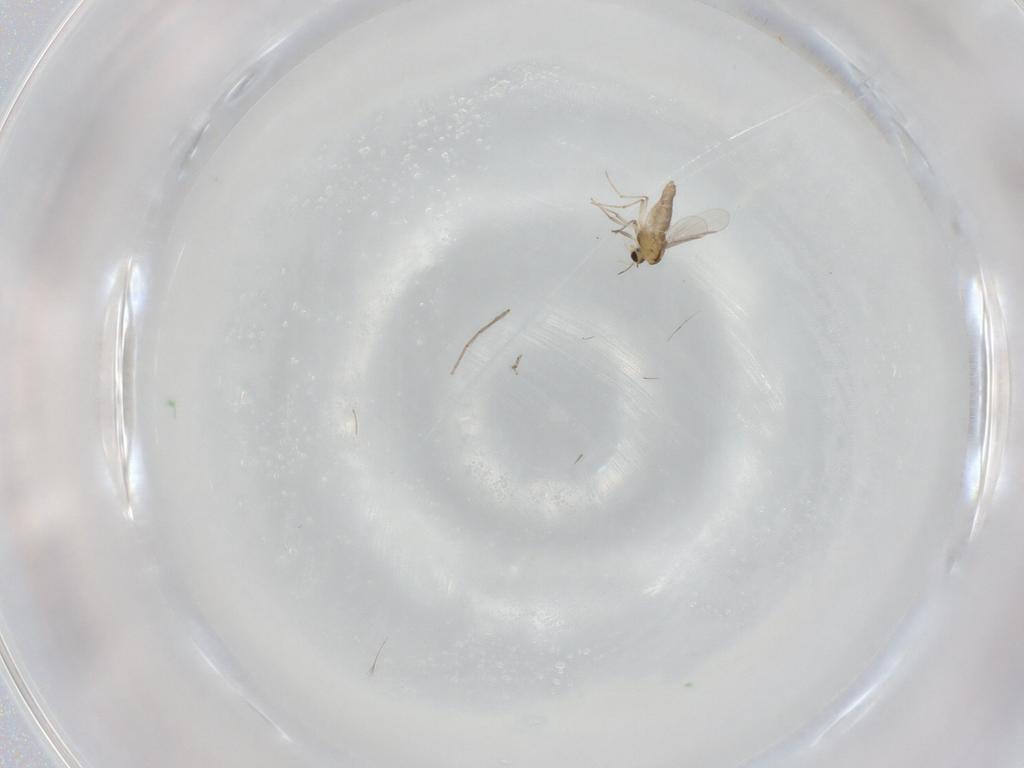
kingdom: Animalia
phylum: Arthropoda
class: Insecta
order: Diptera
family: Chironomidae
